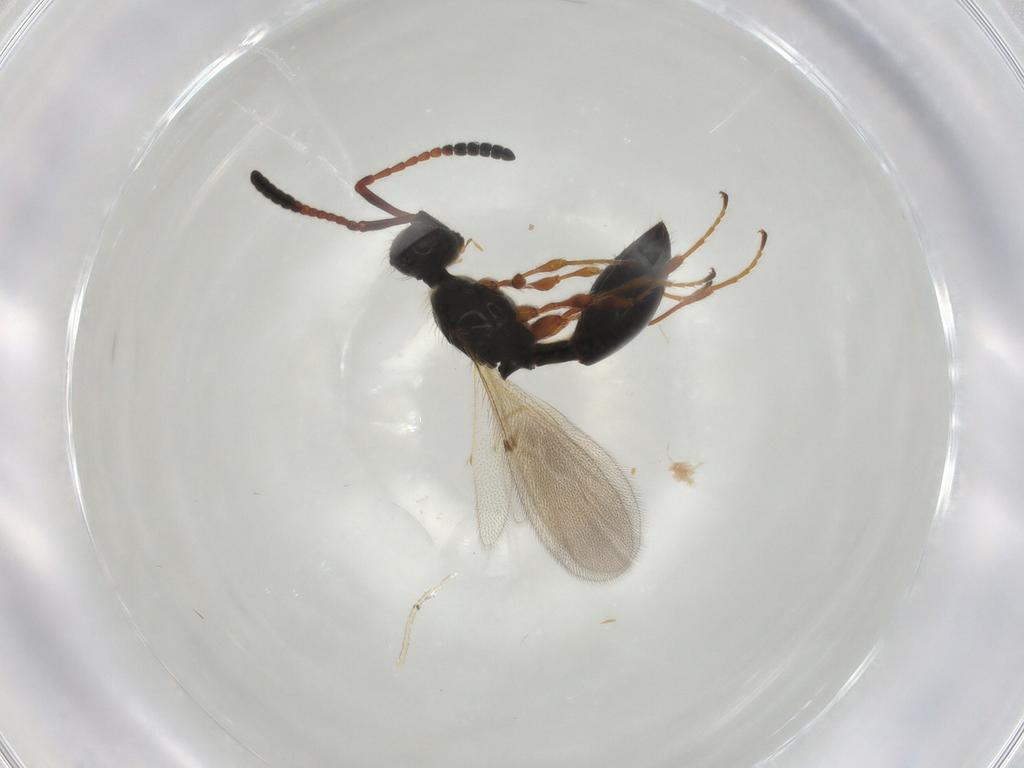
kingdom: Animalia
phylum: Arthropoda
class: Insecta
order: Hymenoptera
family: Diapriidae
